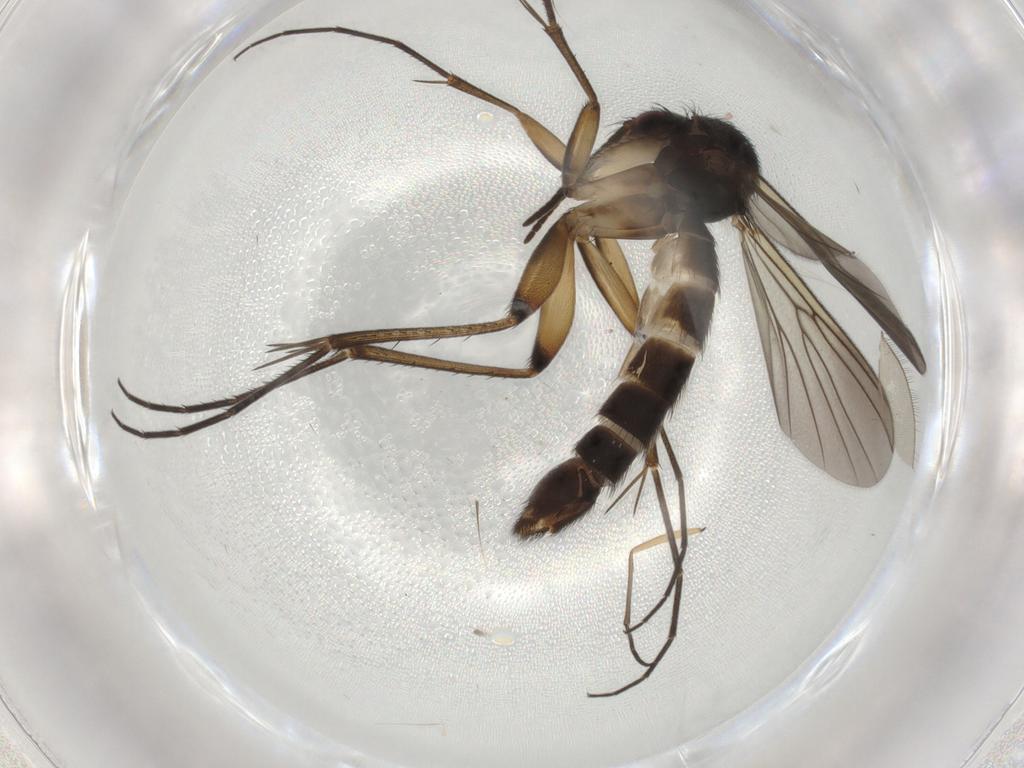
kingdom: Animalia
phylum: Arthropoda
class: Insecta
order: Diptera
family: Mycetophilidae
